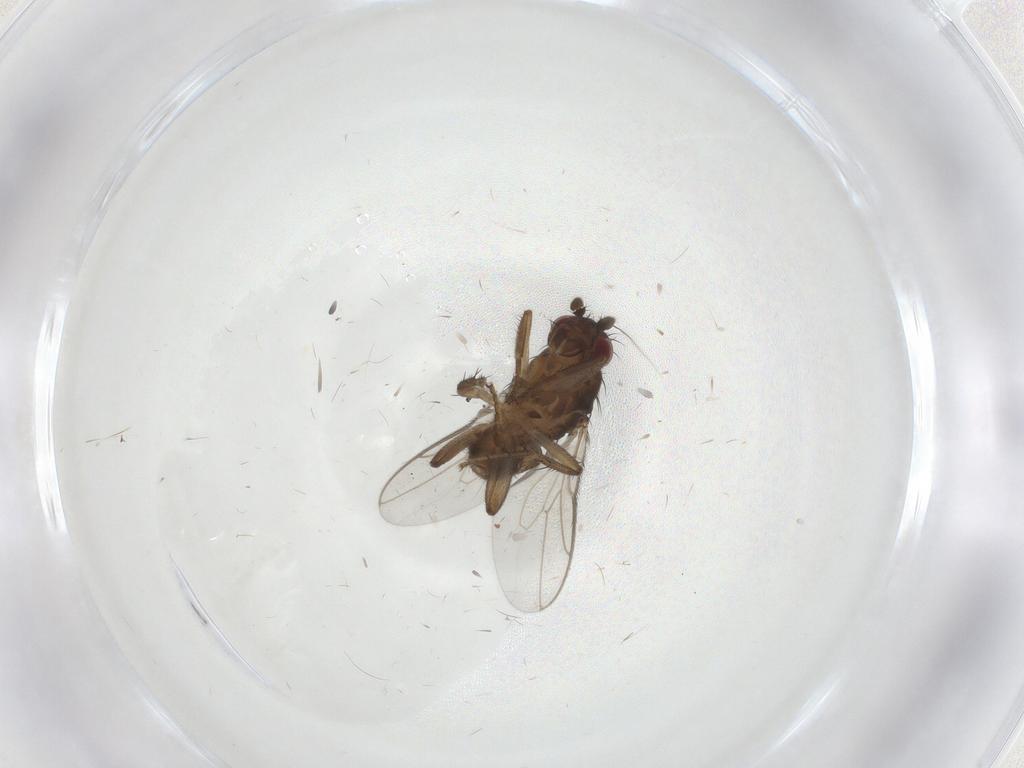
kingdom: Animalia
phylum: Arthropoda
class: Insecta
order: Diptera
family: Sphaeroceridae
